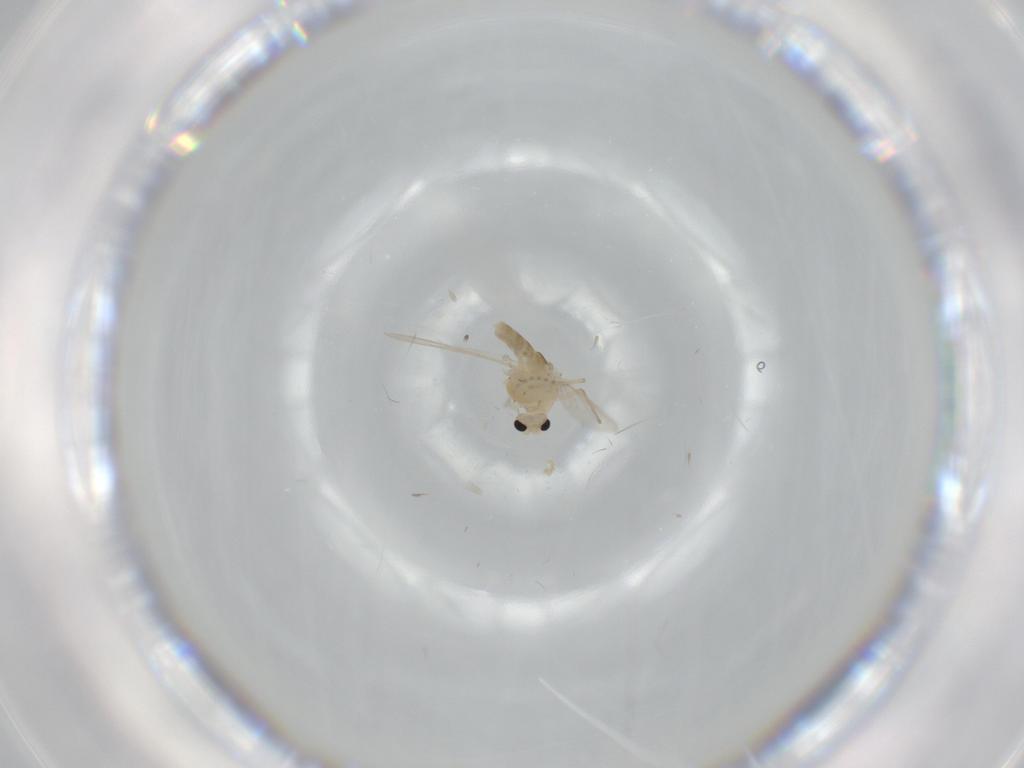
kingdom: Animalia
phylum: Arthropoda
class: Insecta
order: Diptera
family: Chironomidae
